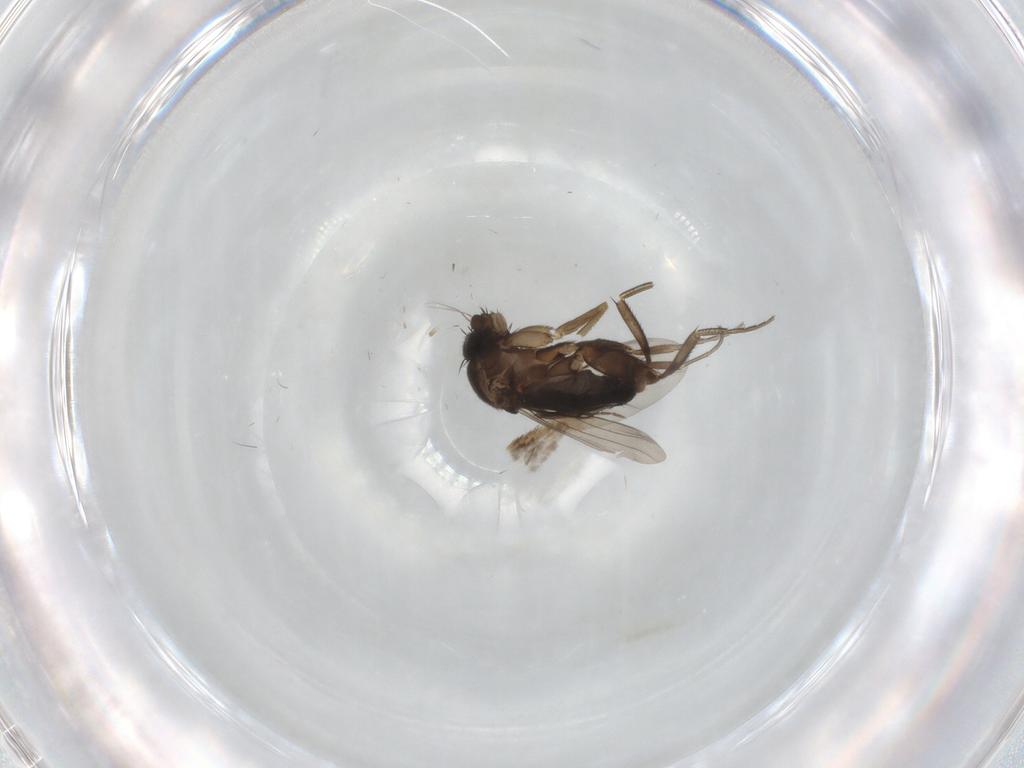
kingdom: Animalia
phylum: Arthropoda
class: Insecta
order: Diptera
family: Phoridae
